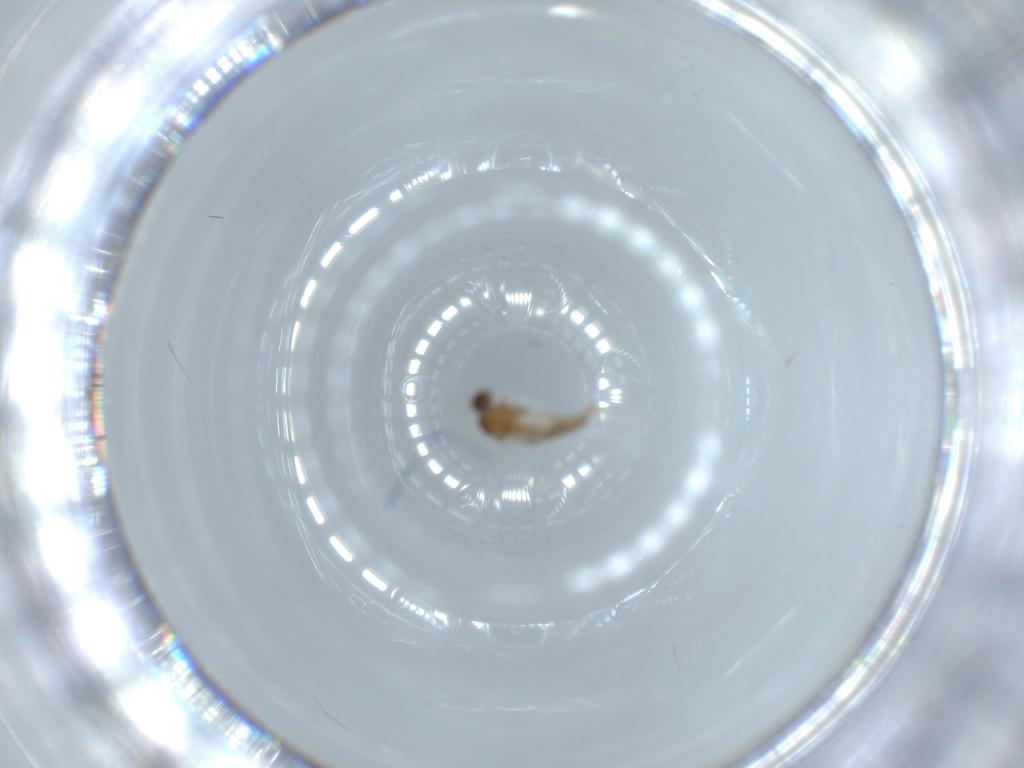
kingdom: Animalia
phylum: Arthropoda
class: Insecta
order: Diptera
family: Cecidomyiidae
